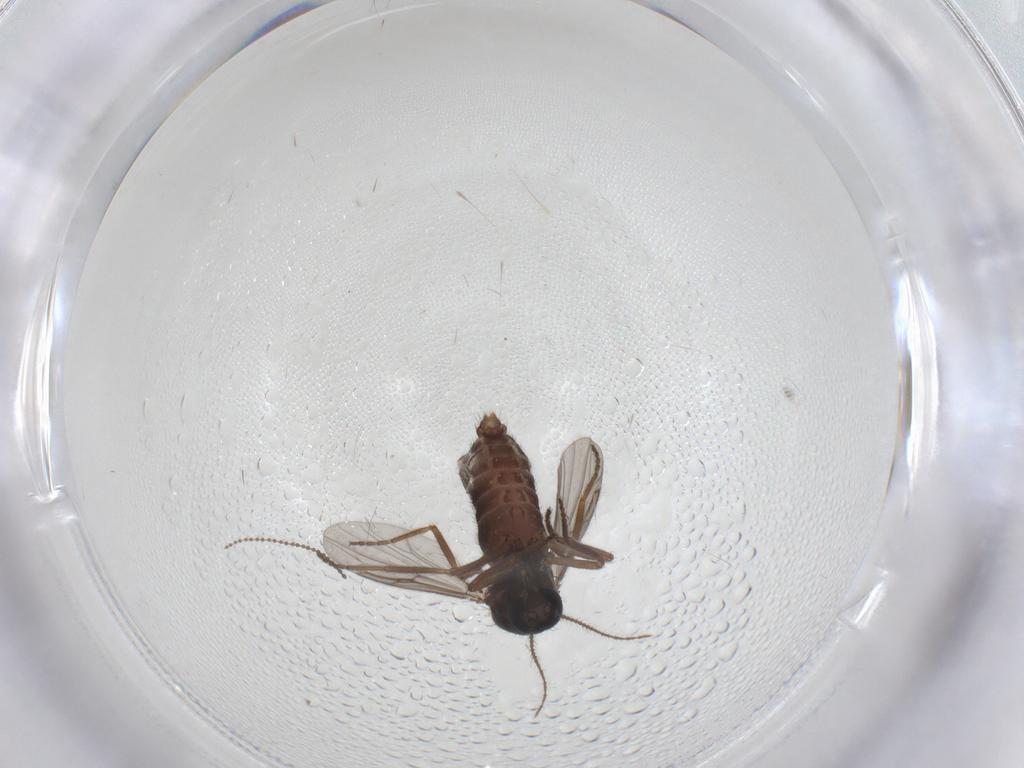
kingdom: Animalia
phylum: Arthropoda
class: Insecta
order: Diptera
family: Ceratopogonidae
